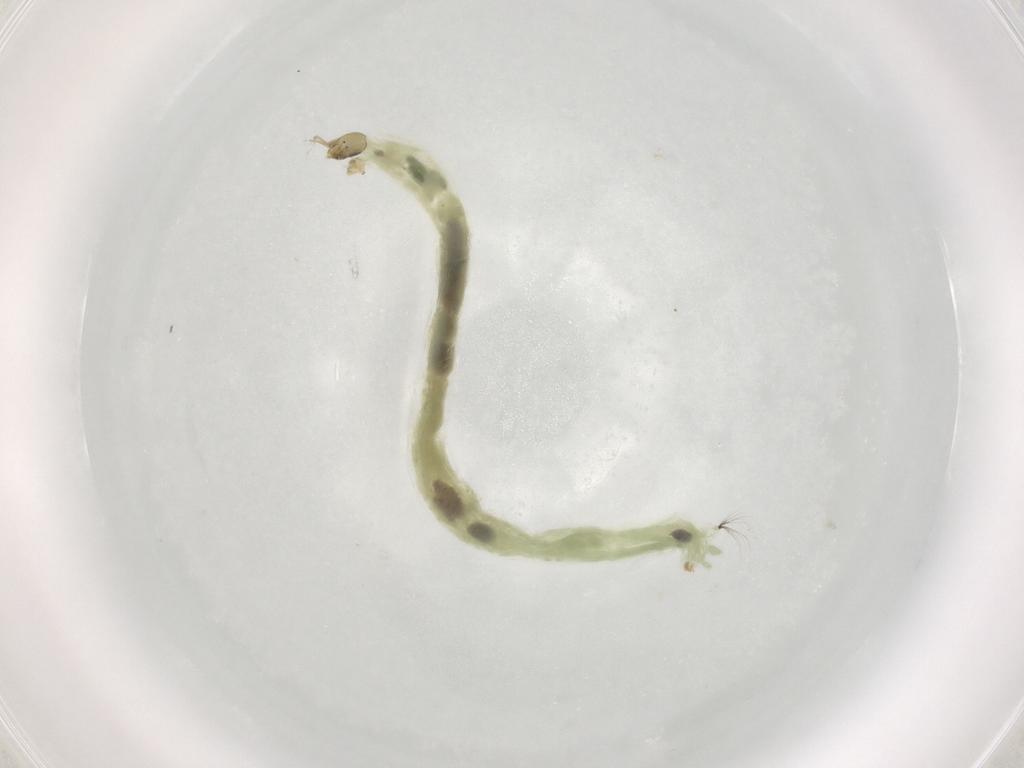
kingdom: Animalia
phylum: Arthropoda
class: Insecta
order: Diptera
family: Chironomidae
